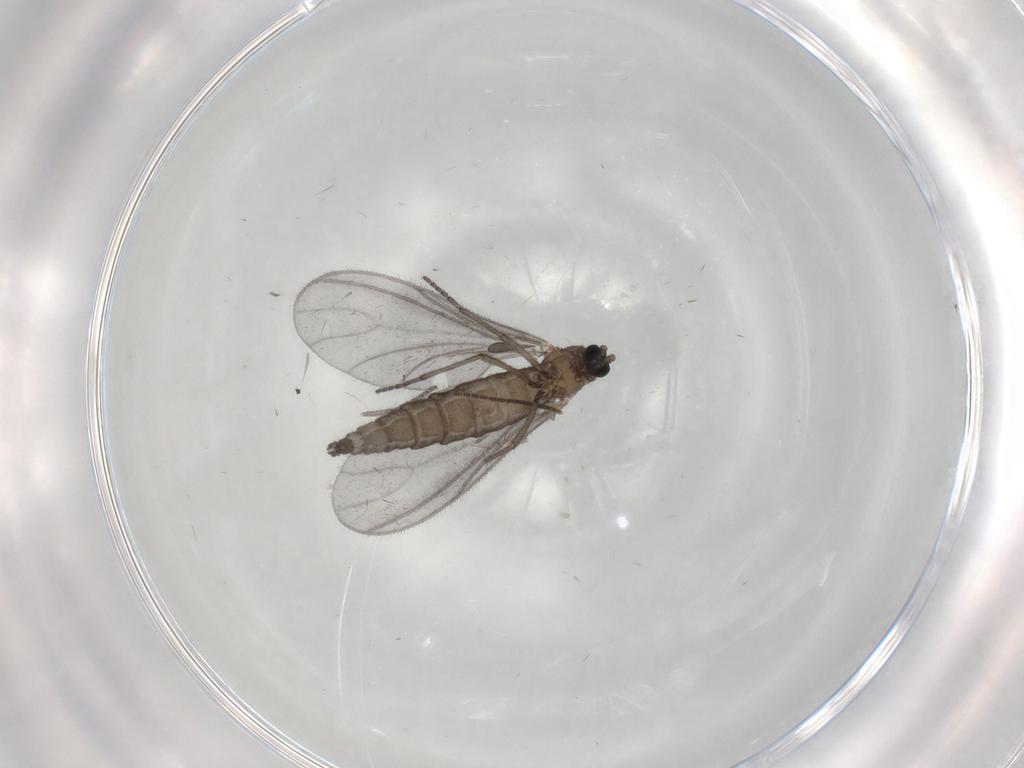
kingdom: Animalia
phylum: Arthropoda
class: Insecta
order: Diptera
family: Sciaridae
